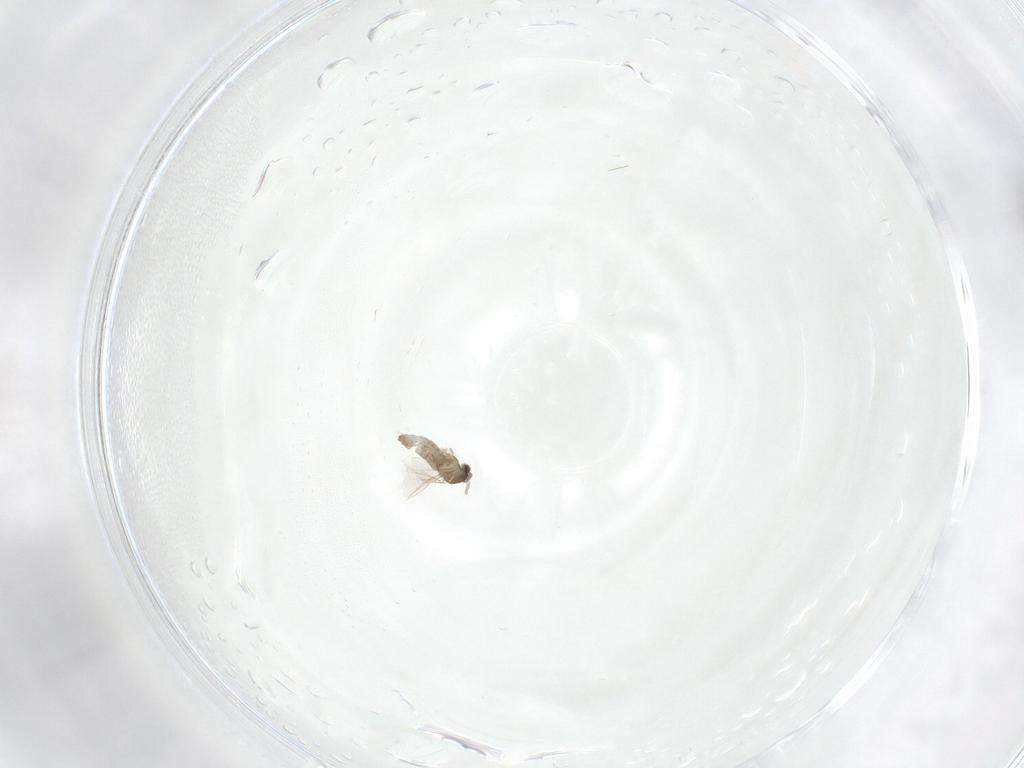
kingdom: Animalia
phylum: Arthropoda
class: Insecta
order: Diptera
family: Cecidomyiidae
